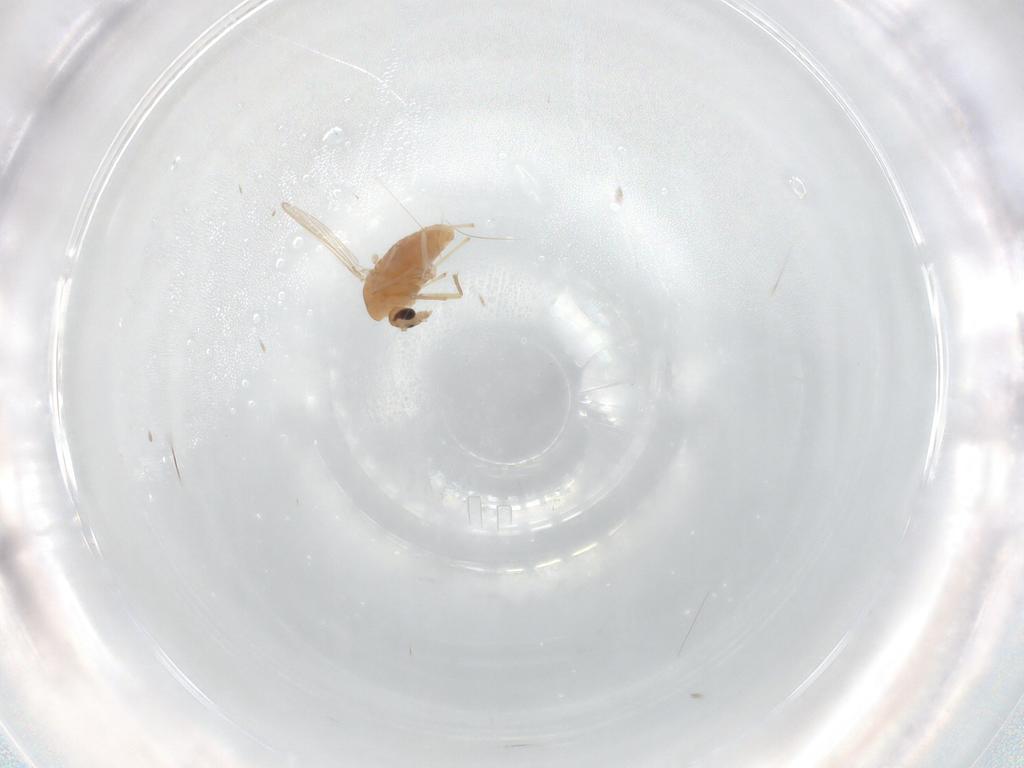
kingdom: Animalia
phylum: Arthropoda
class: Insecta
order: Diptera
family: Chironomidae
